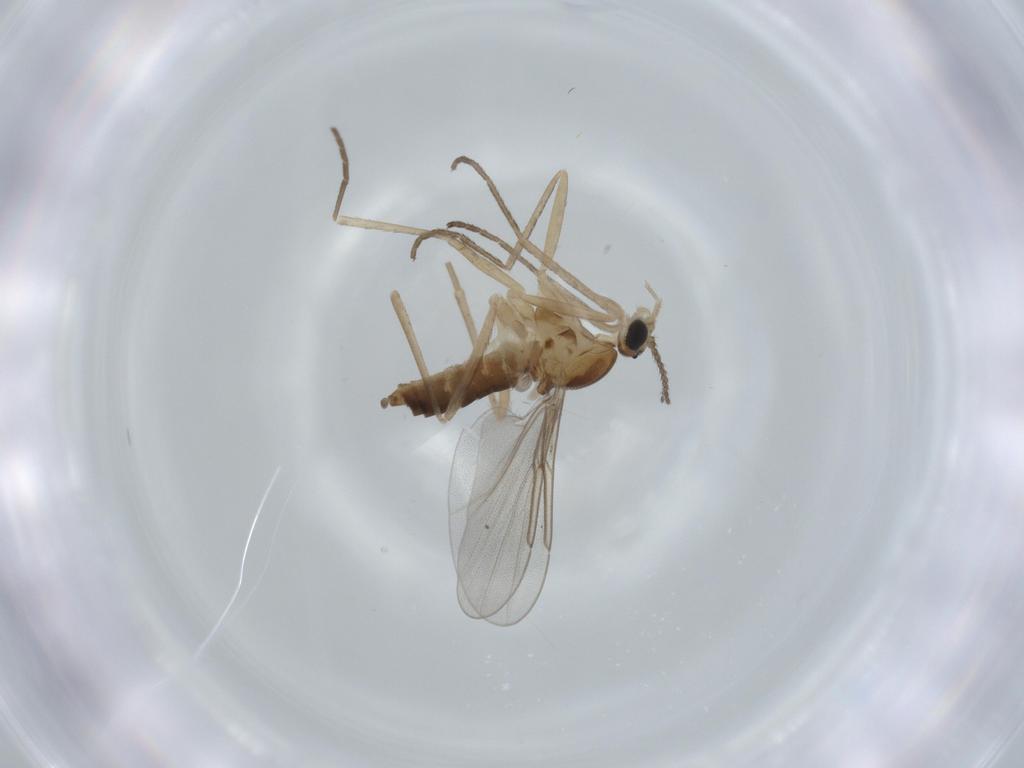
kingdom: Animalia
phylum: Arthropoda
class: Insecta
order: Diptera
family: Cecidomyiidae
